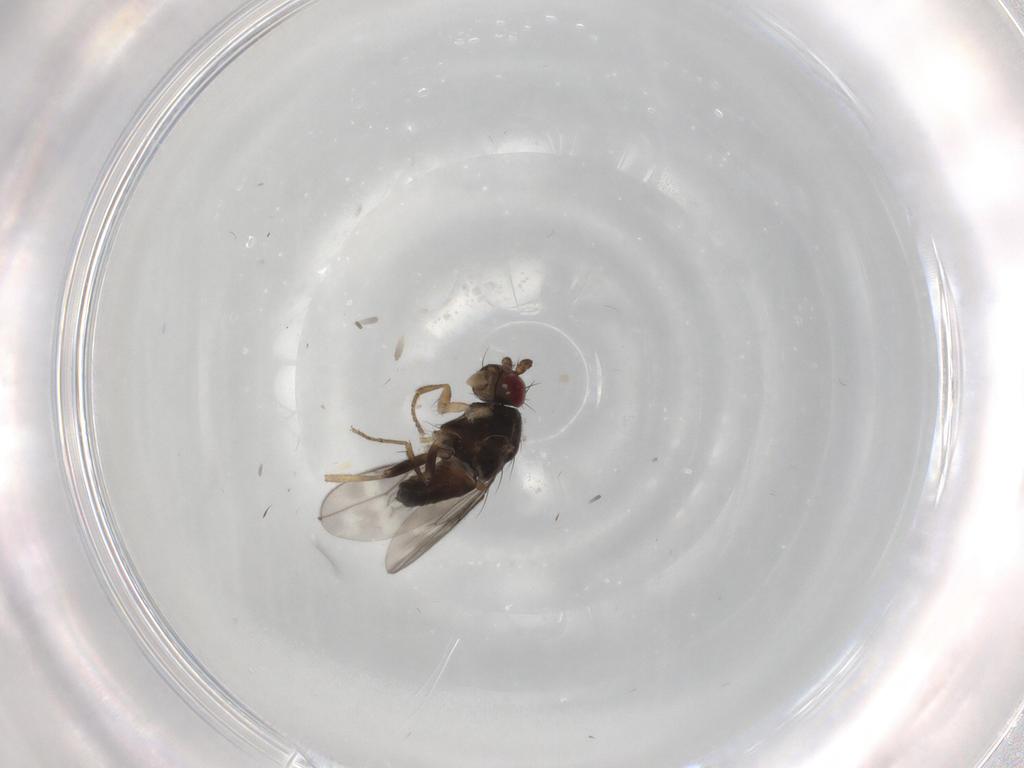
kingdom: Animalia
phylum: Arthropoda
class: Insecta
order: Diptera
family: Sphaeroceridae
